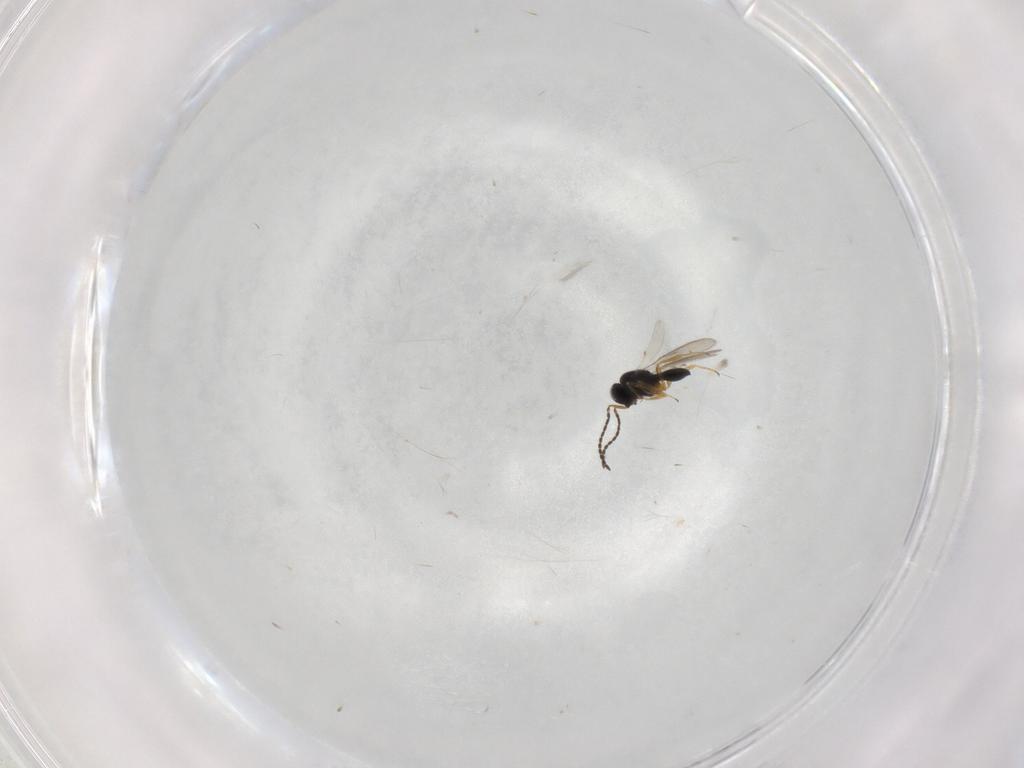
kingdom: Animalia
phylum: Arthropoda
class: Insecta
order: Hymenoptera
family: Scelionidae
